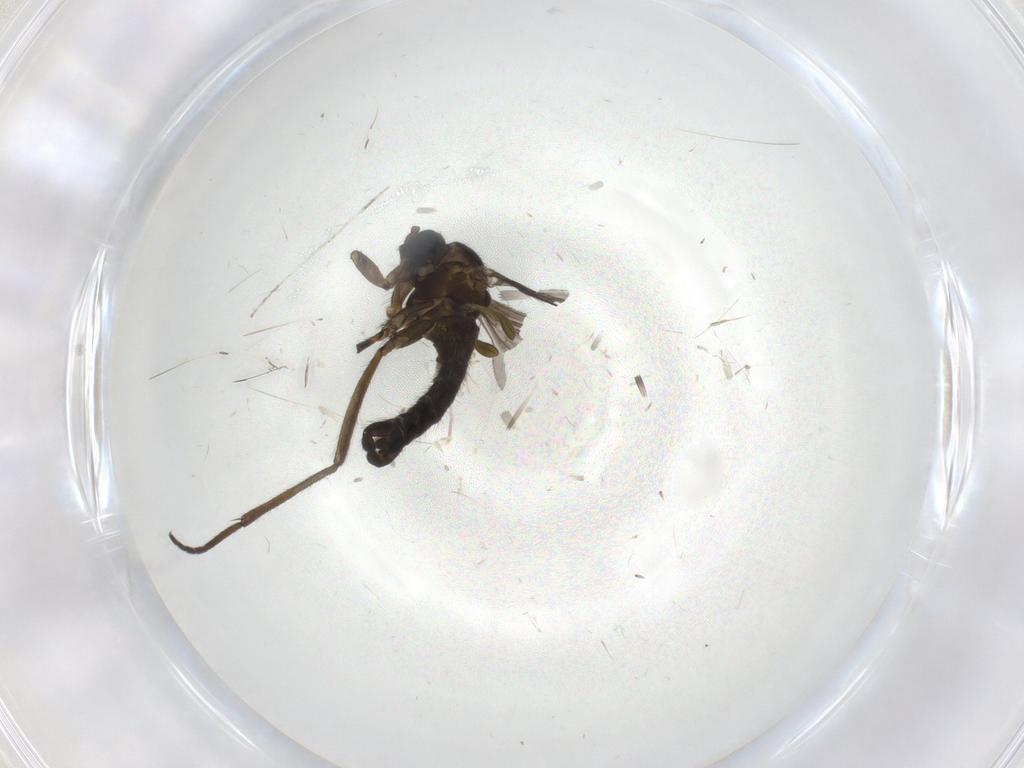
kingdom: Animalia
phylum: Arthropoda
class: Insecta
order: Diptera
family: Sciaridae
